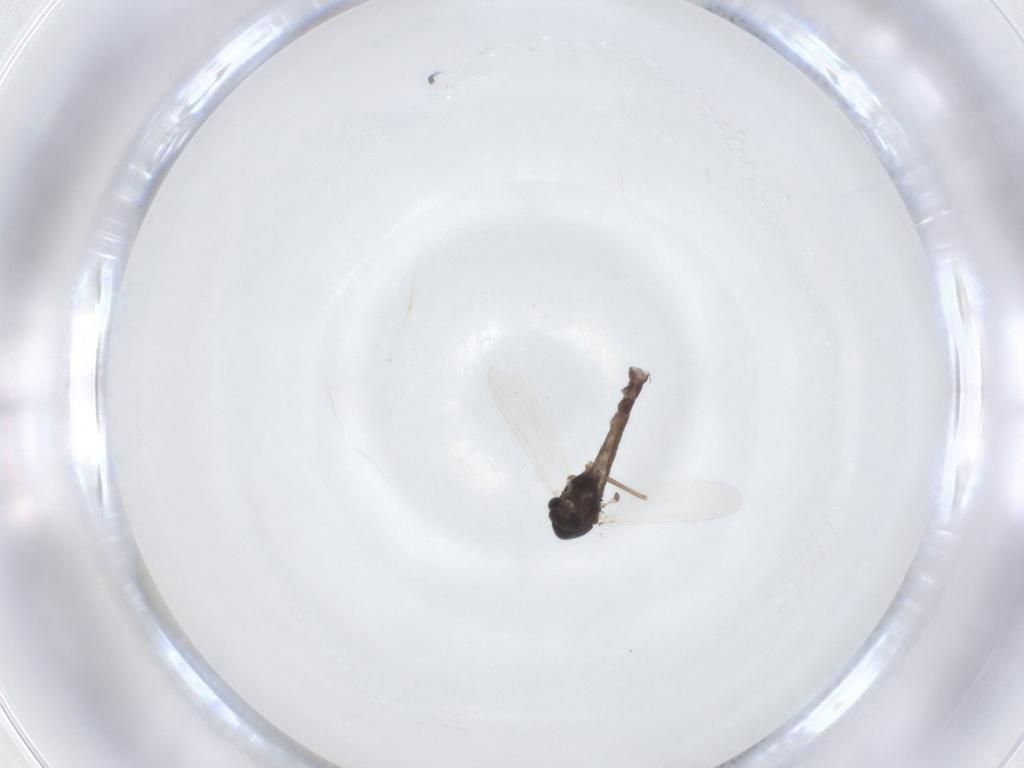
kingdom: Animalia
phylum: Arthropoda
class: Insecta
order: Diptera
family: Chironomidae
